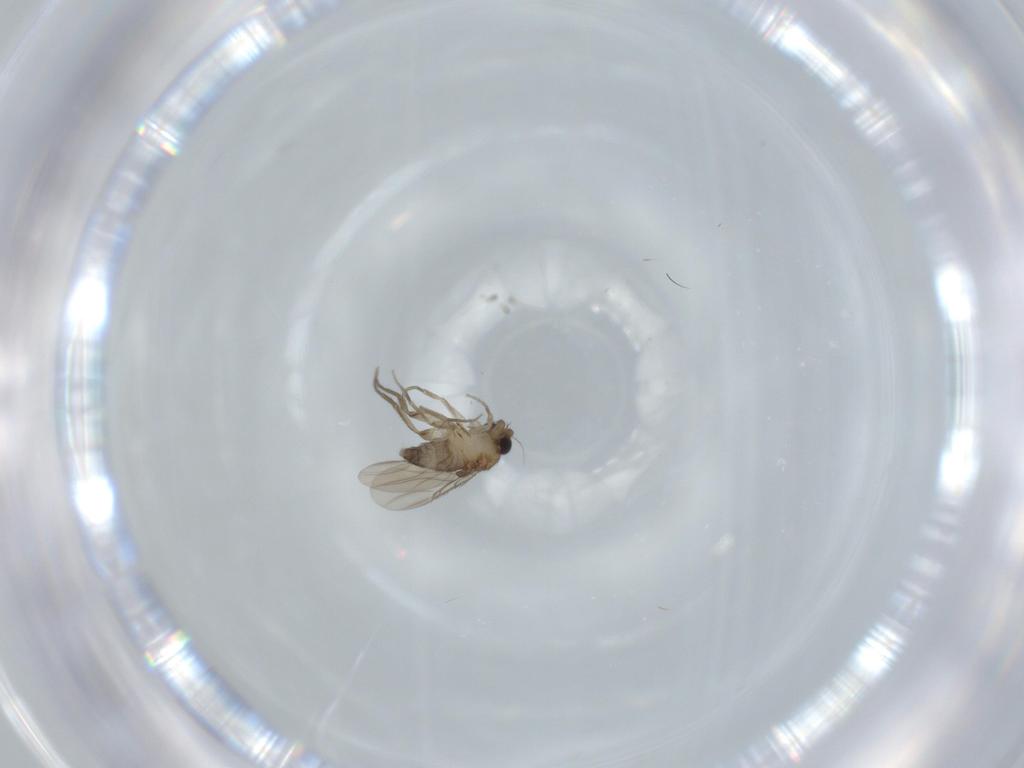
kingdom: Animalia
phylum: Arthropoda
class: Insecta
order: Diptera
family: Phoridae
